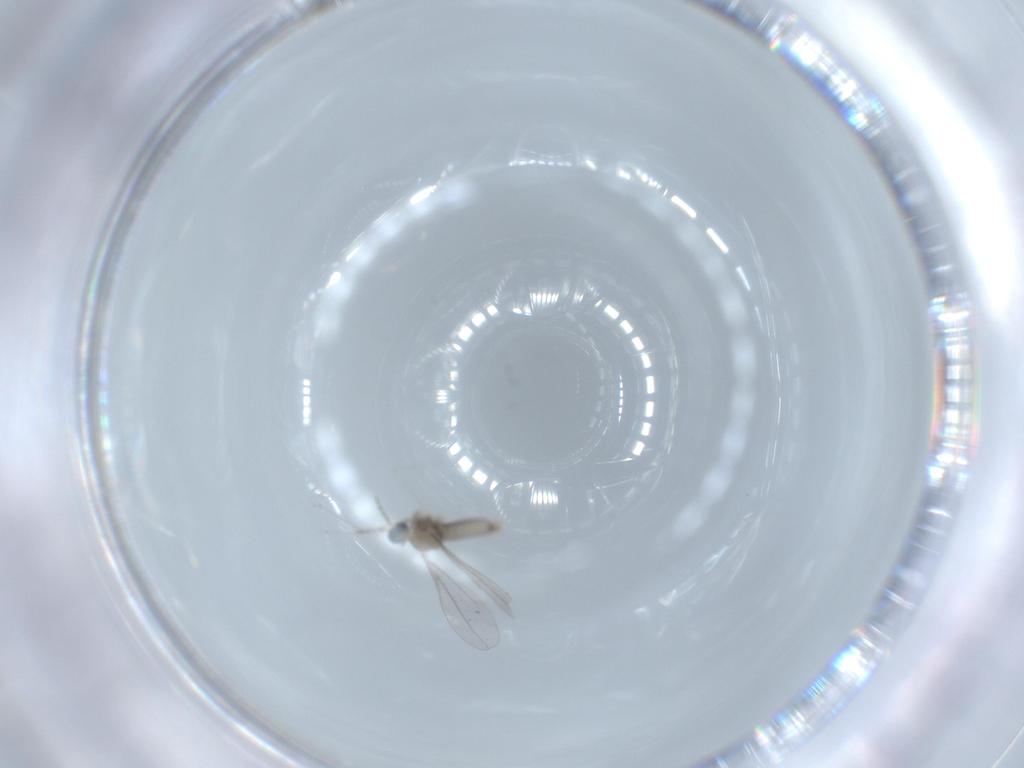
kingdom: Animalia
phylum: Arthropoda
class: Insecta
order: Diptera
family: Cecidomyiidae
